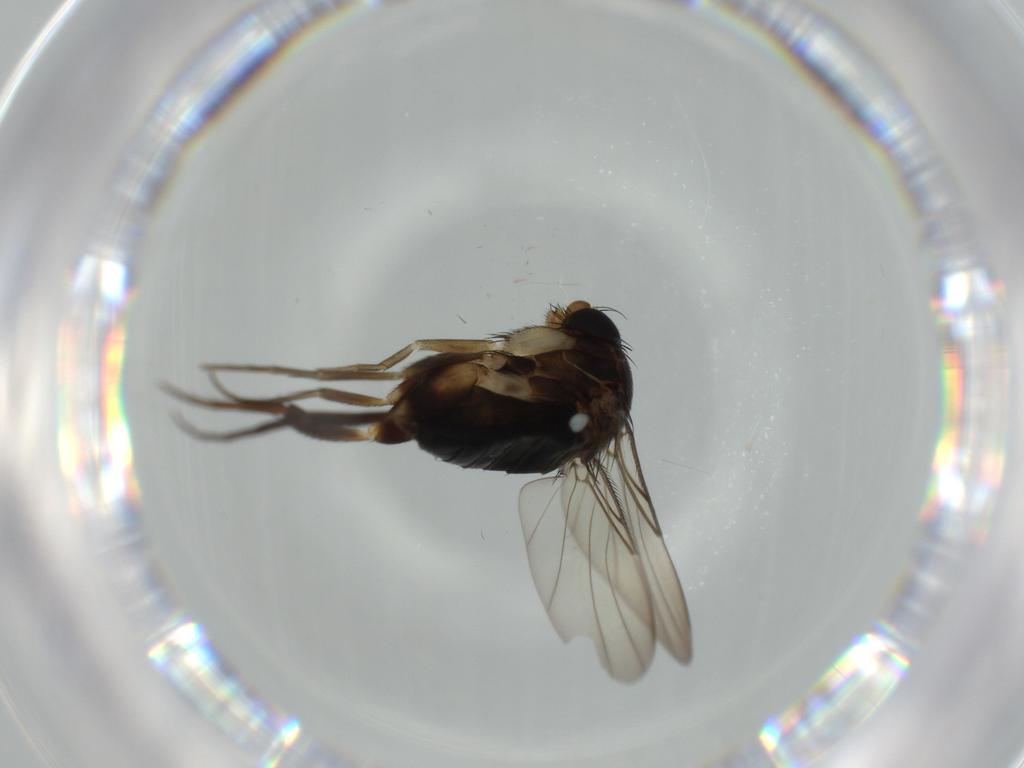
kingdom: Animalia
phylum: Arthropoda
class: Insecta
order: Diptera
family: Phoridae
